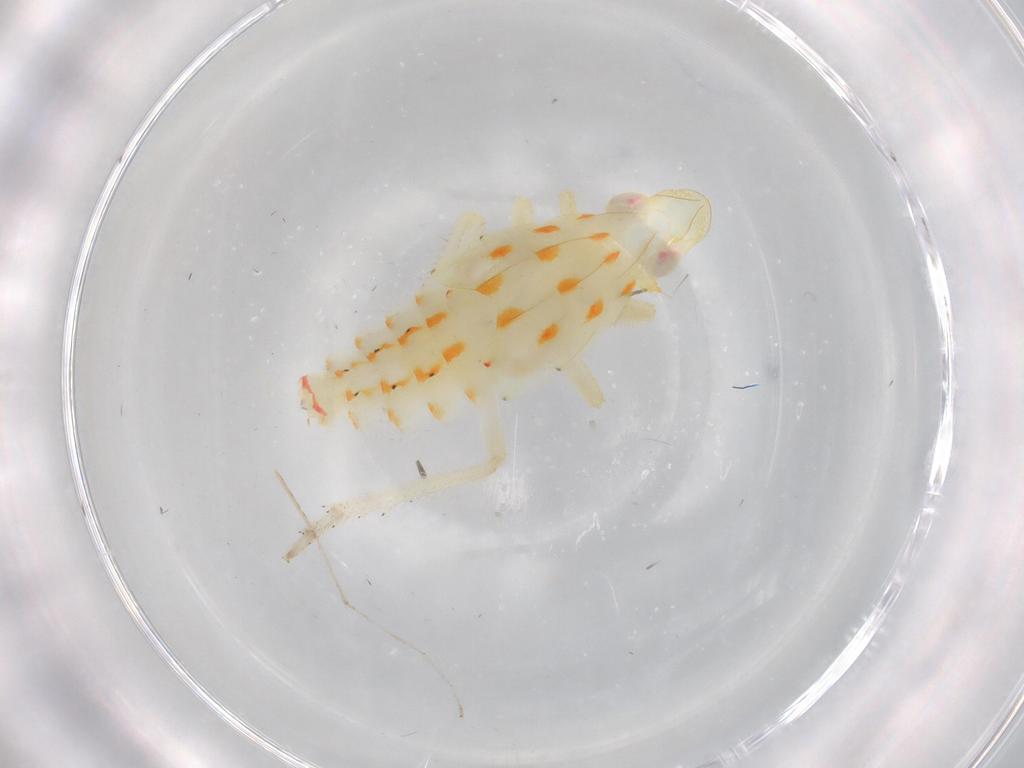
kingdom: Animalia
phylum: Arthropoda
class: Insecta
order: Hemiptera
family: Tropiduchidae
